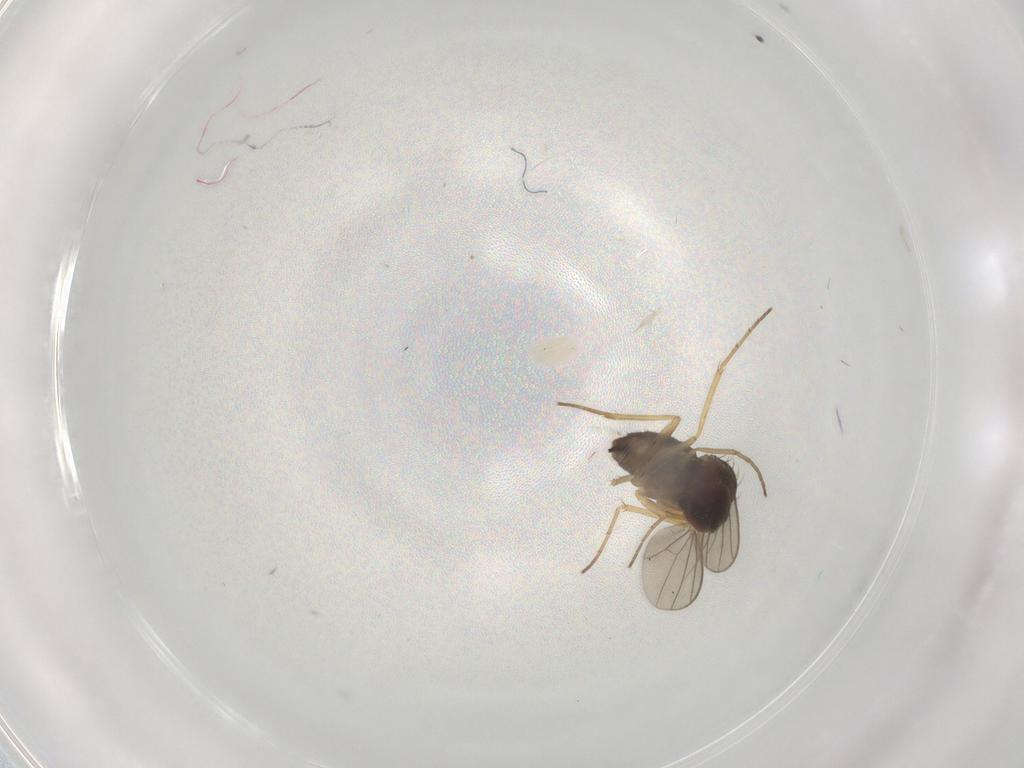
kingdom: Animalia
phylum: Arthropoda
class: Insecta
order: Diptera
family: Dolichopodidae
